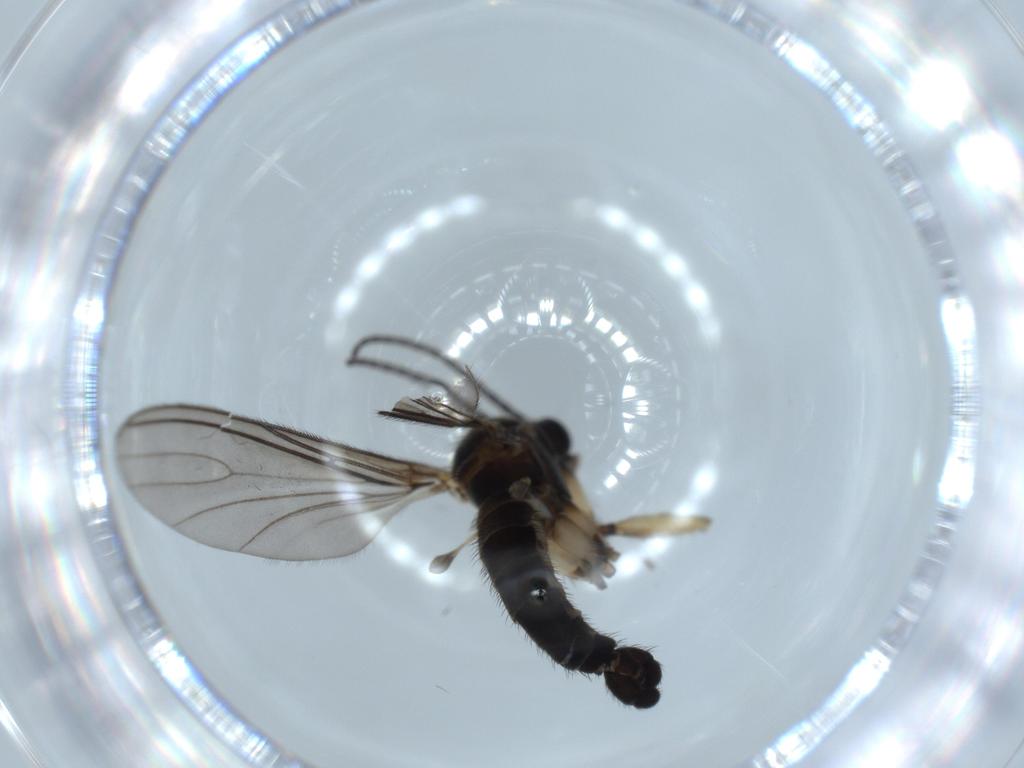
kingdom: Animalia
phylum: Arthropoda
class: Insecta
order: Diptera
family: Sciaridae
